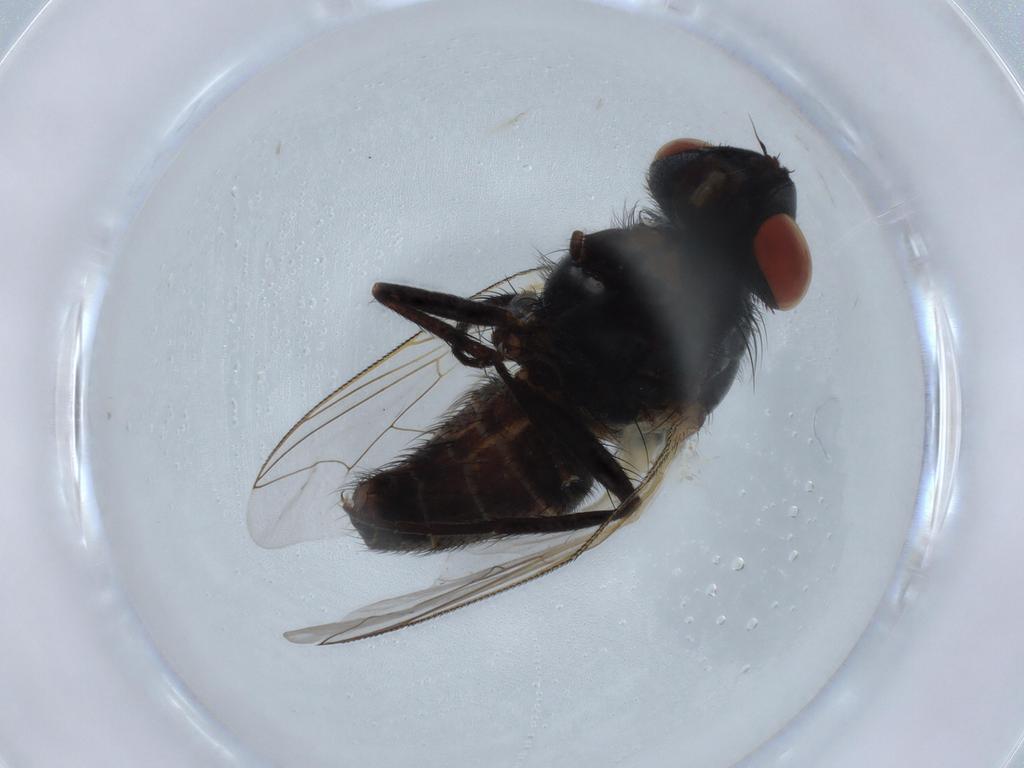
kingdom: Animalia
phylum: Arthropoda
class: Insecta
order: Diptera
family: Sarcophagidae
